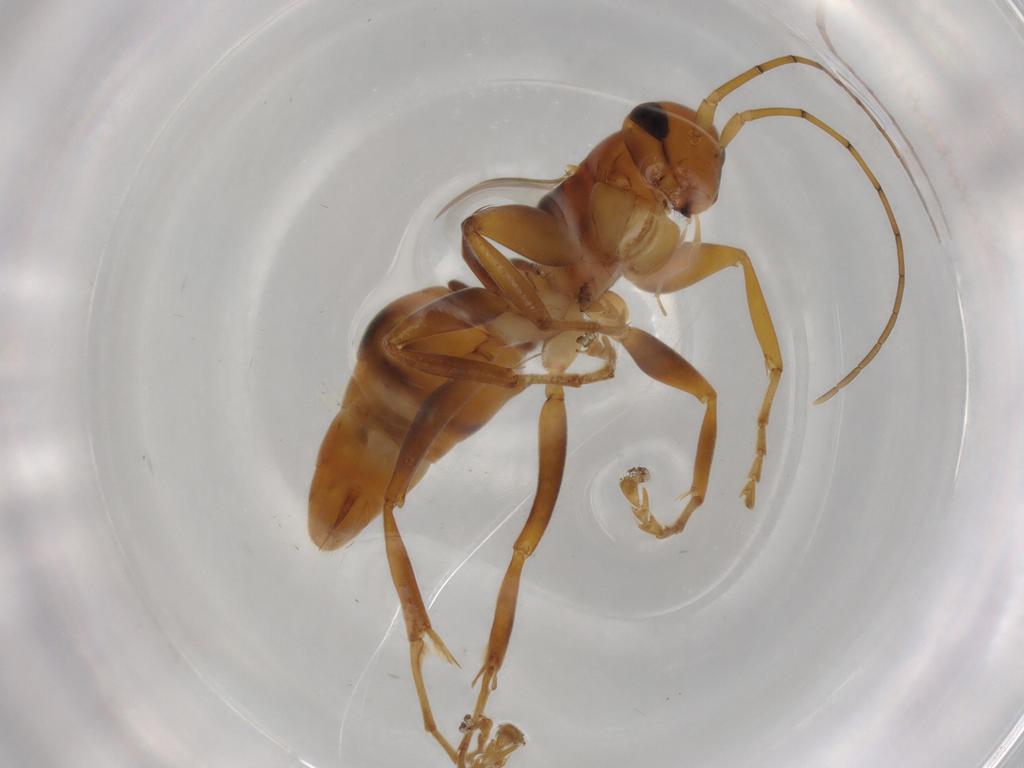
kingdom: Animalia
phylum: Arthropoda
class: Insecta
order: Hymenoptera
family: Rhopalosomatidae
